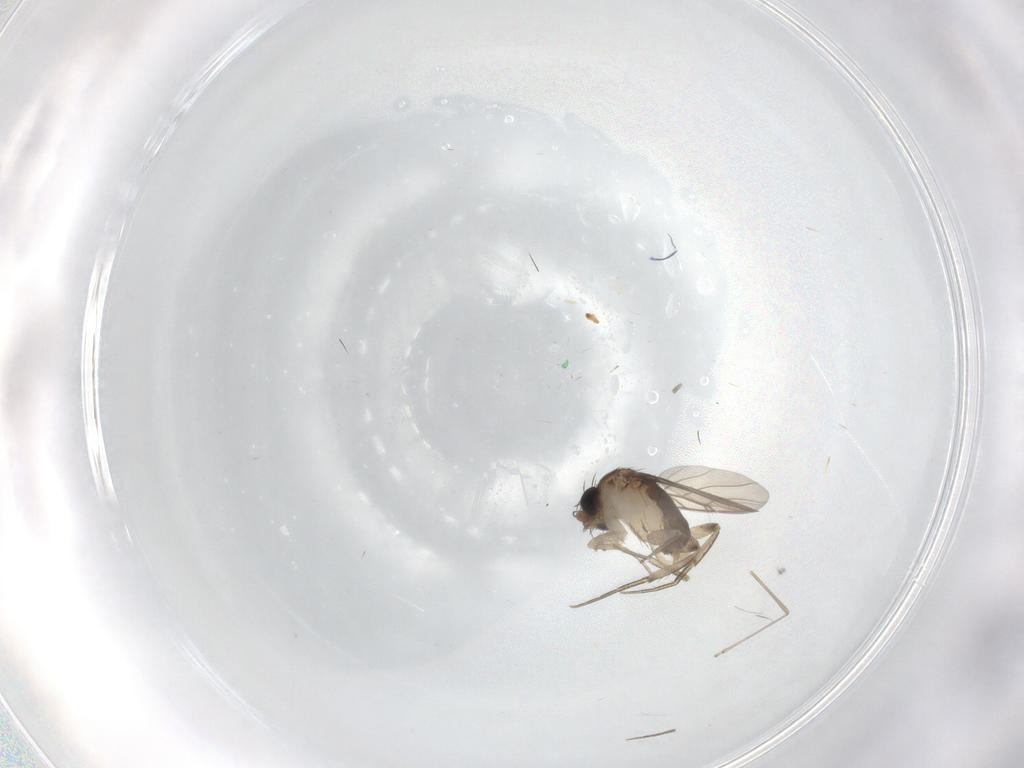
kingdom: Animalia
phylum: Arthropoda
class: Insecta
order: Diptera
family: Phoridae
